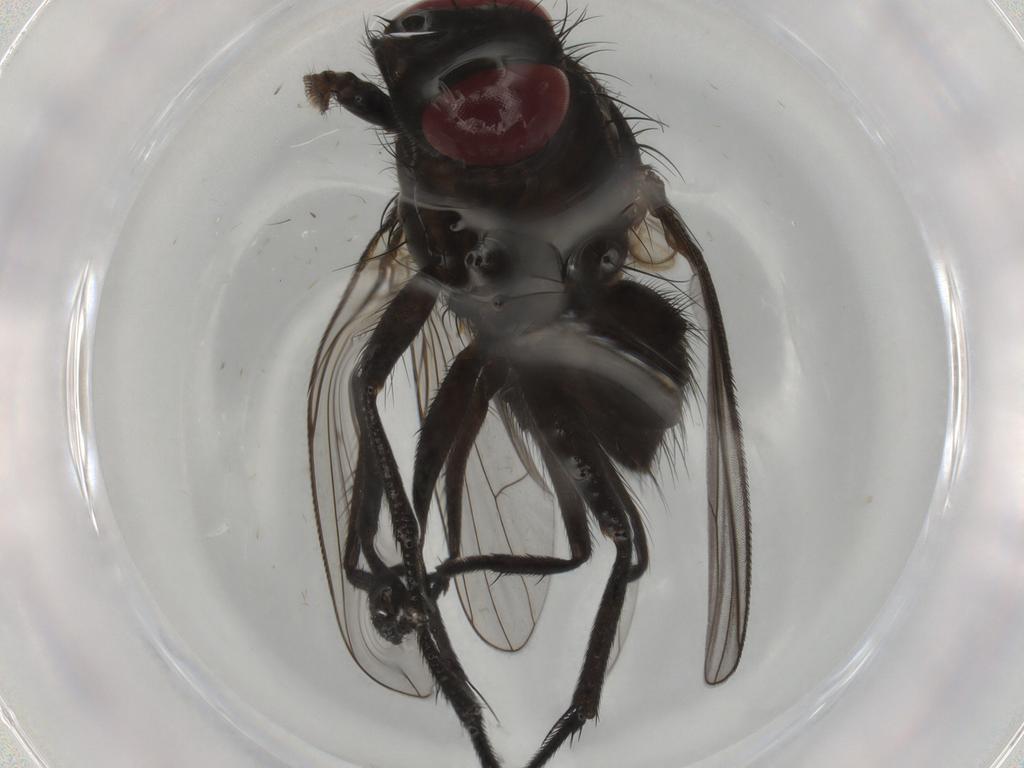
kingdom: Animalia
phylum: Arthropoda
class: Insecta
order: Diptera
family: Muscidae
